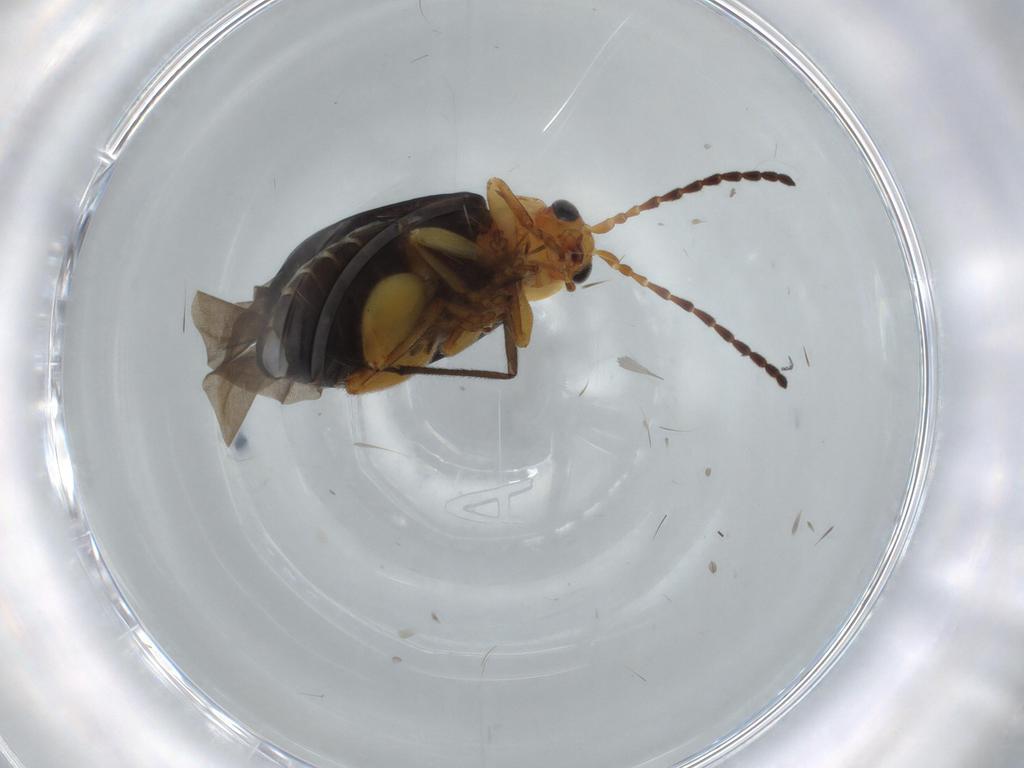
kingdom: Animalia
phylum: Arthropoda
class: Insecta
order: Coleoptera
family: Chrysomelidae
